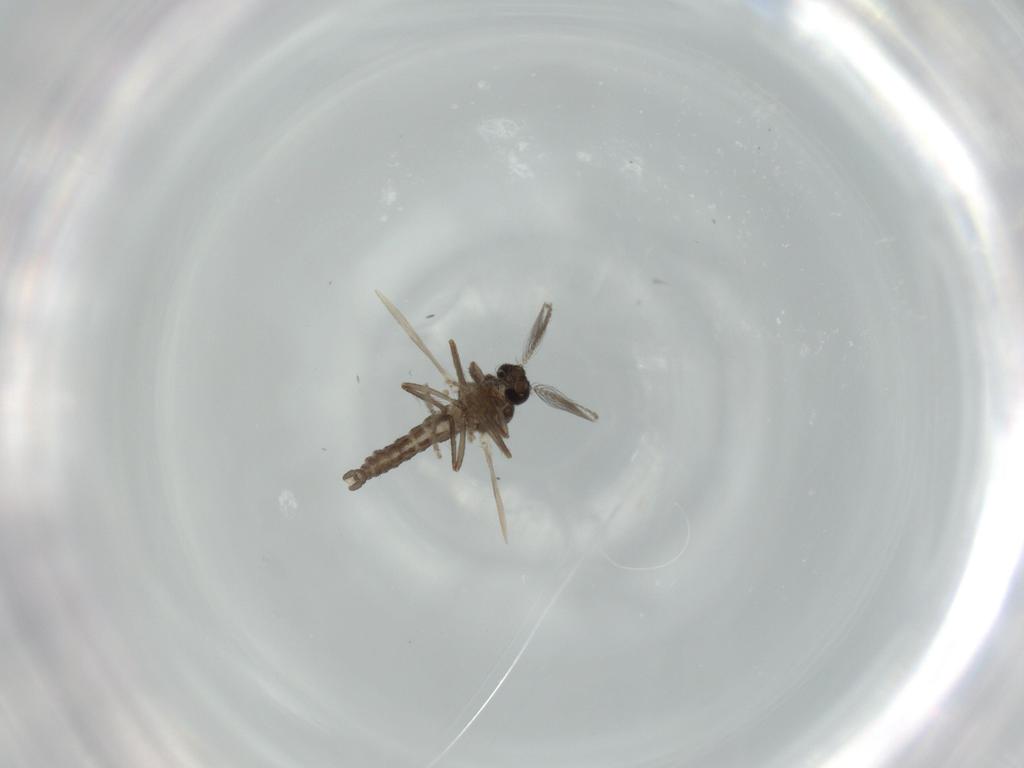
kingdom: Animalia
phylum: Arthropoda
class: Insecta
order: Diptera
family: Ceratopogonidae
